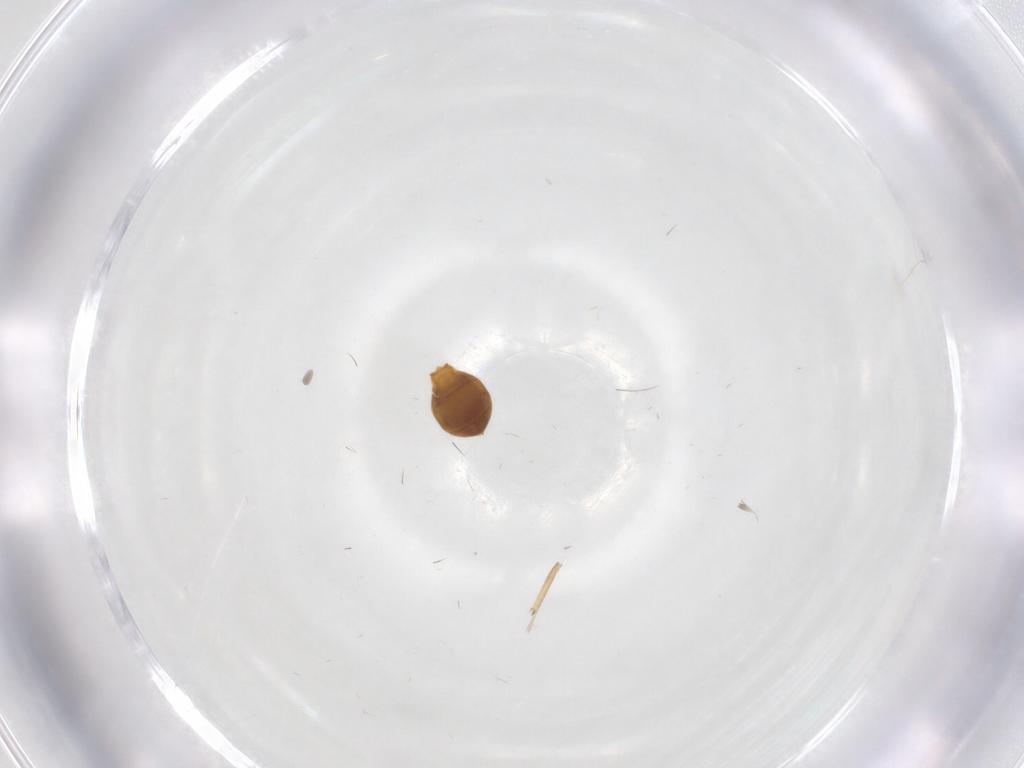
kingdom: Animalia
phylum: Arthropoda
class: Insecta
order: Hymenoptera
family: Scelionidae
